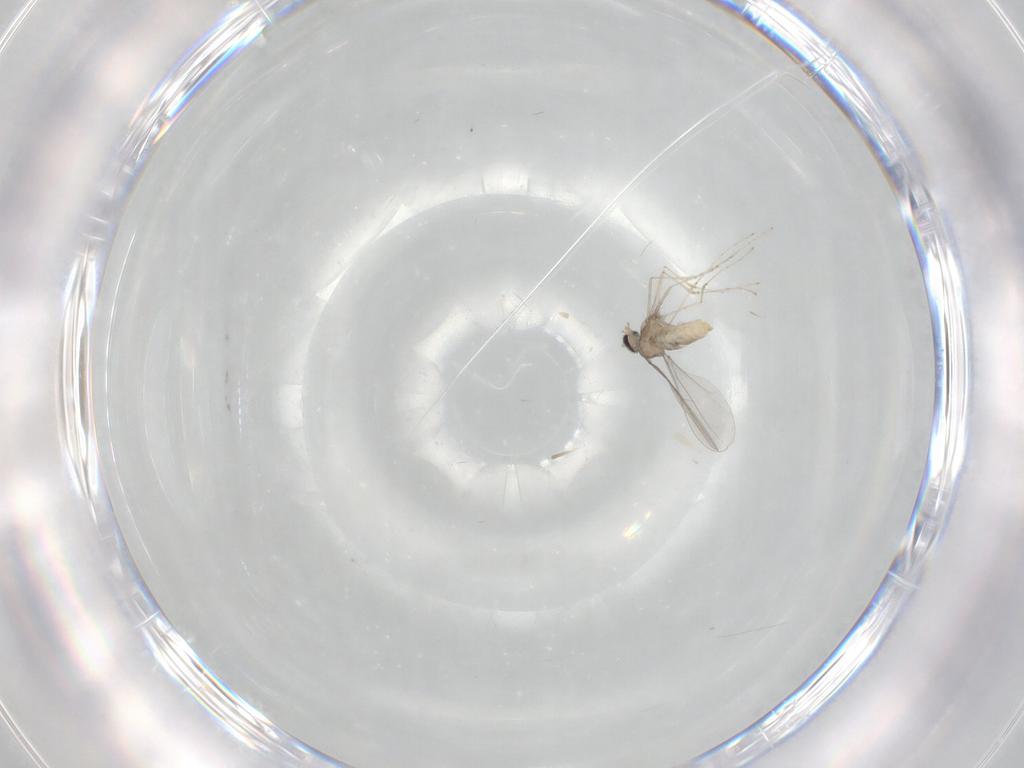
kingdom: Animalia
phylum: Arthropoda
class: Insecta
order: Diptera
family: Cecidomyiidae
